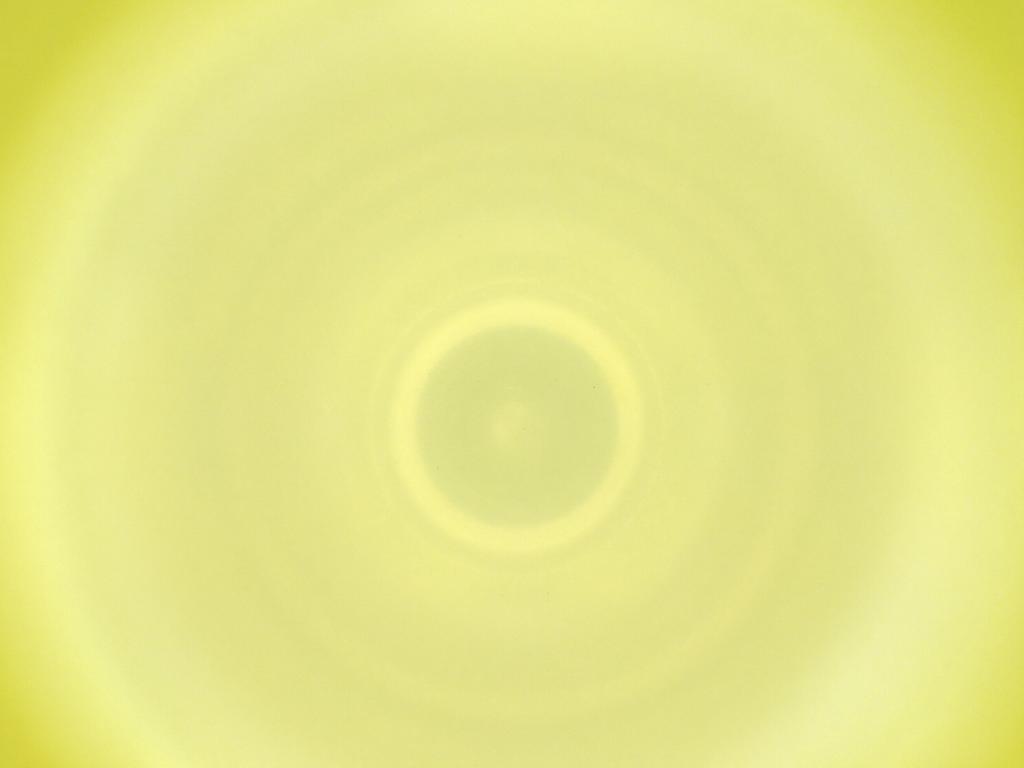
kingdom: Animalia
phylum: Arthropoda
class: Insecta
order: Diptera
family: Cecidomyiidae
